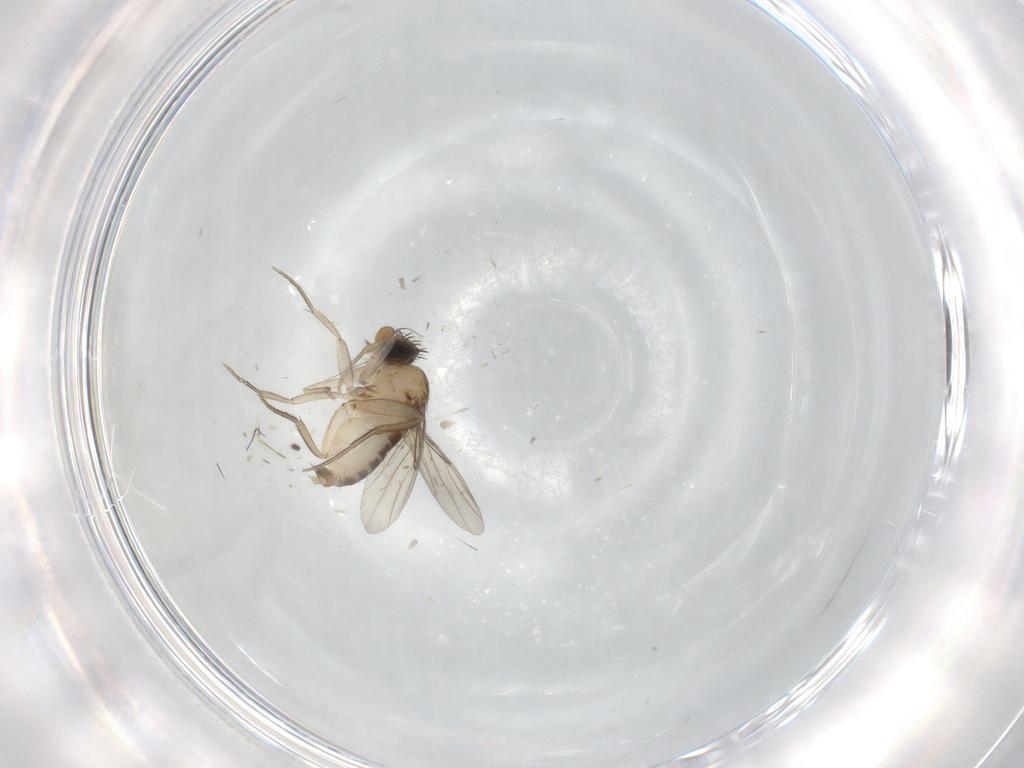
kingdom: Animalia
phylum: Arthropoda
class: Insecta
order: Diptera
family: Phoridae
